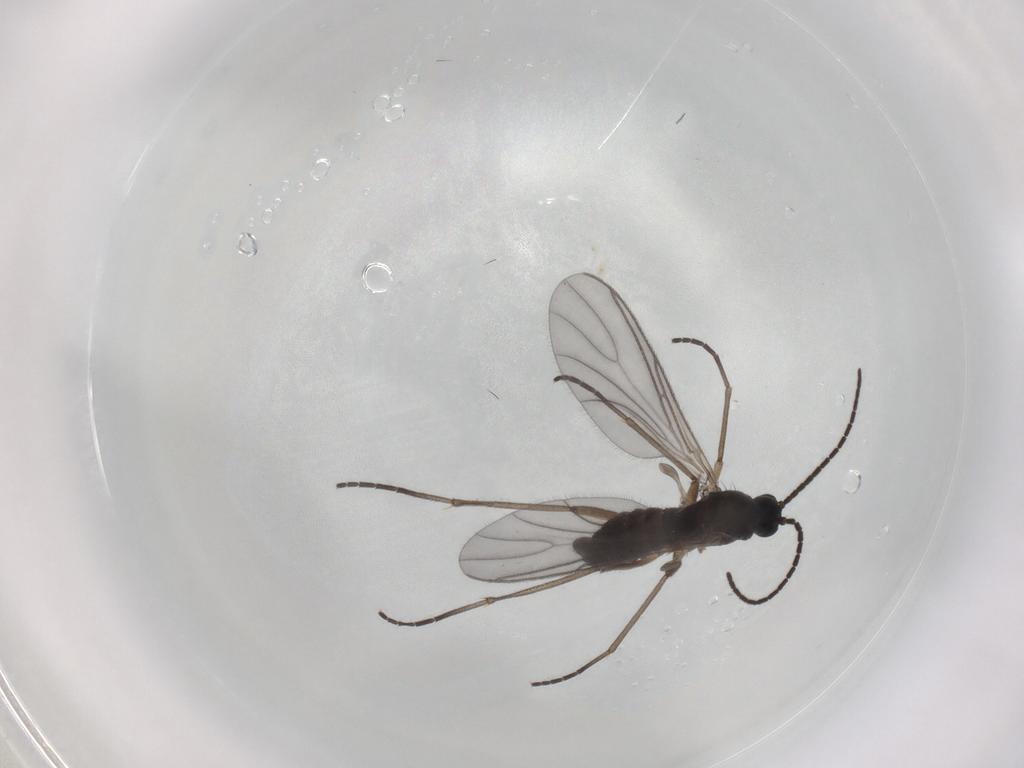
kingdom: Animalia
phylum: Arthropoda
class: Insecta
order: Diptera
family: Sciaridae
